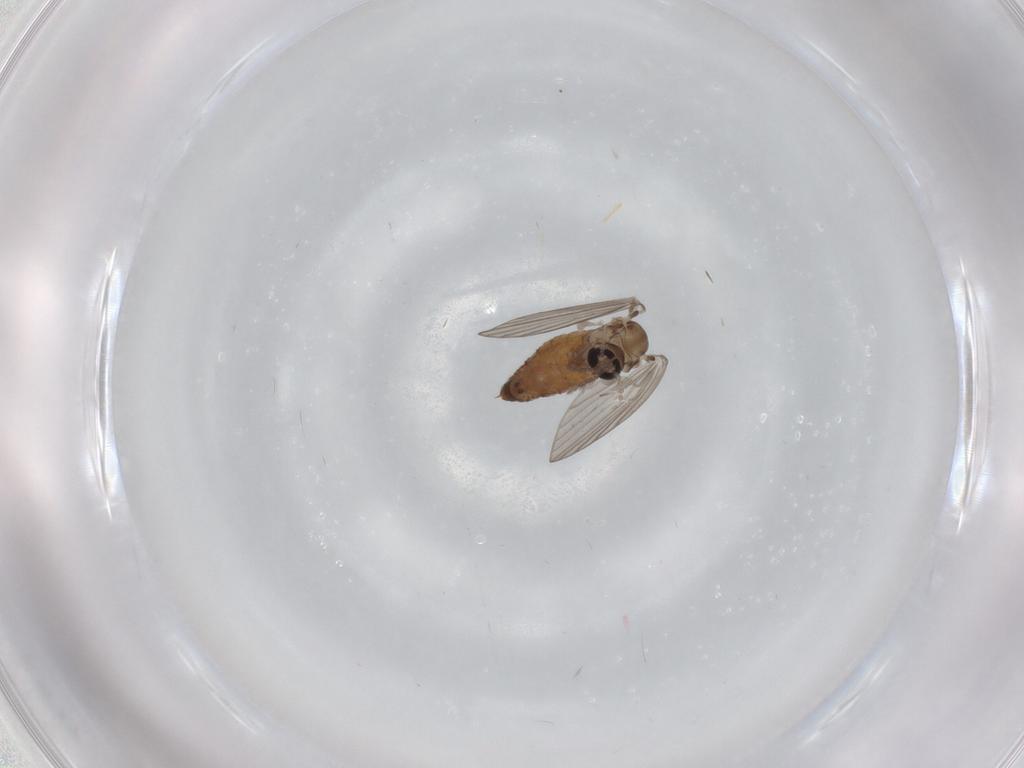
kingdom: Animalia
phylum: Arthropoda
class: Insecta
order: Diptera
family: Psychodidae
